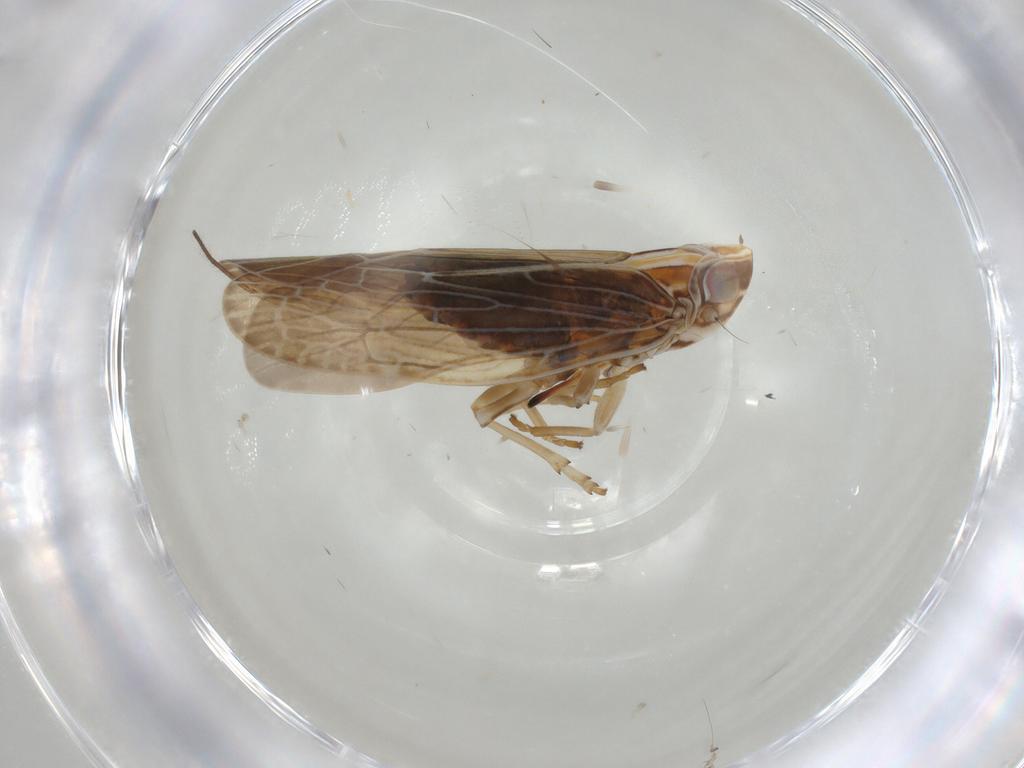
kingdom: Animalia
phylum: Arthropoda
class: Insecta
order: Hemiptera
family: Achilidae
